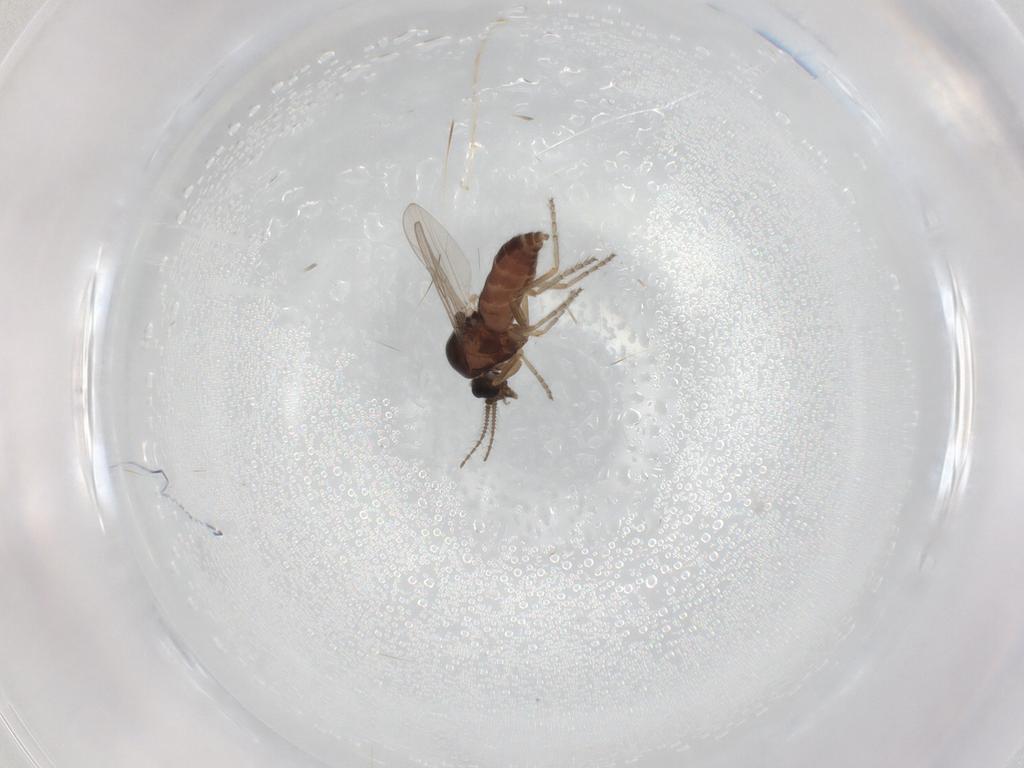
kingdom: Animalia
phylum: Arthropoda
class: Insecta
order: Diptera
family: Ceratopogonidae
